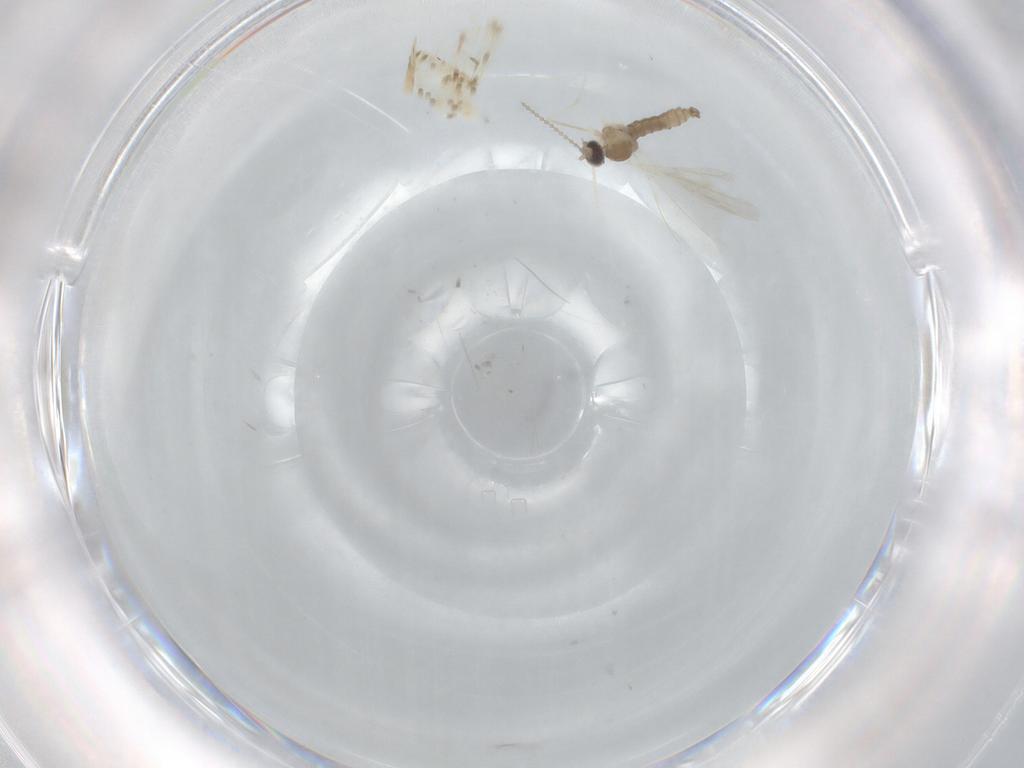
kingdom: Animalia
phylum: Arthropoda
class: Insecta
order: Diptera
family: Cecidomyiidae
